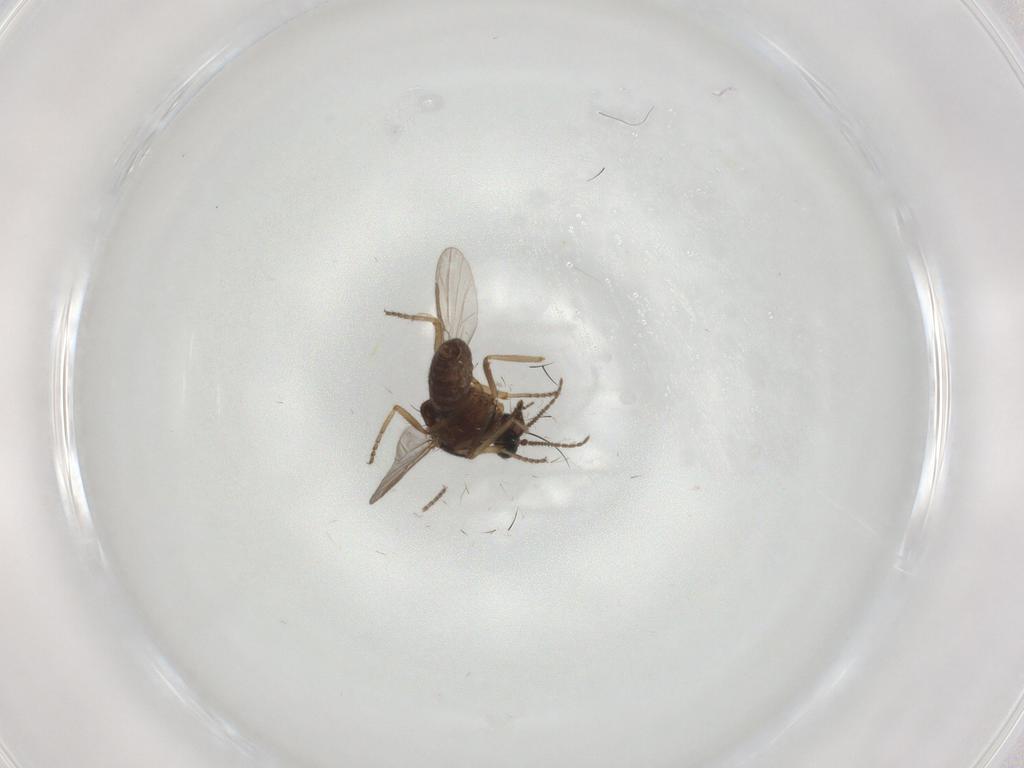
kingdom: Animalia
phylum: Arthropoda
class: Insecta
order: Diptera
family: Ceratopogonidae
